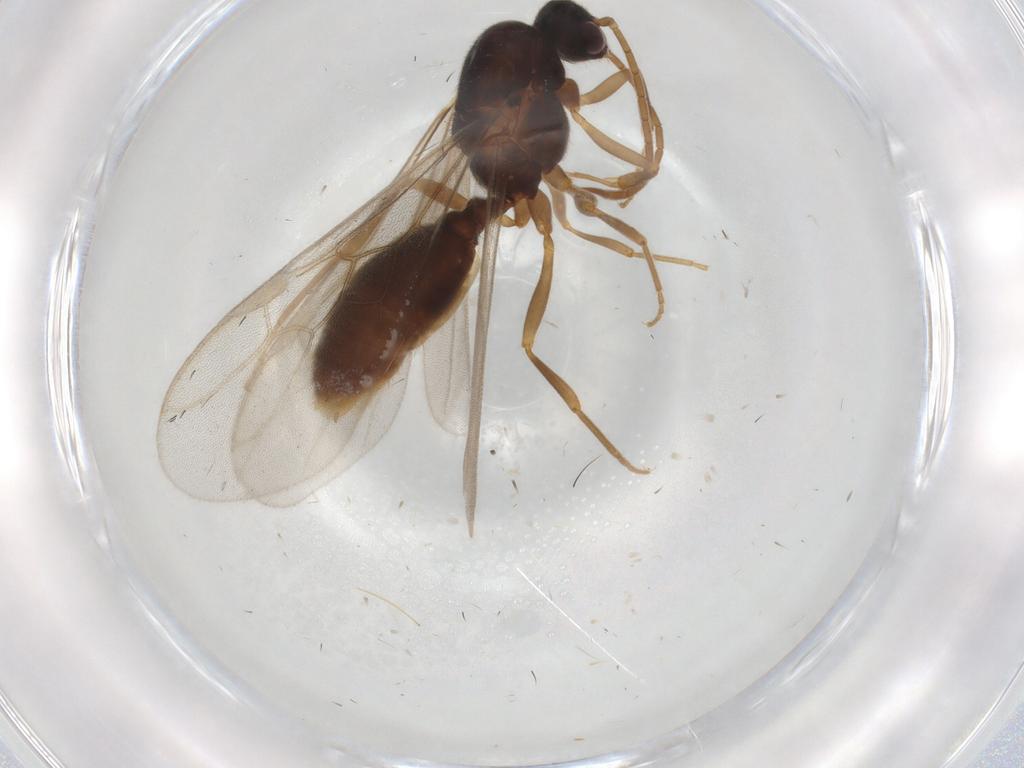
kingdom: Animalia
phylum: Arthropoda
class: Insecta
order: Hymenoptera
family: Formicidae
